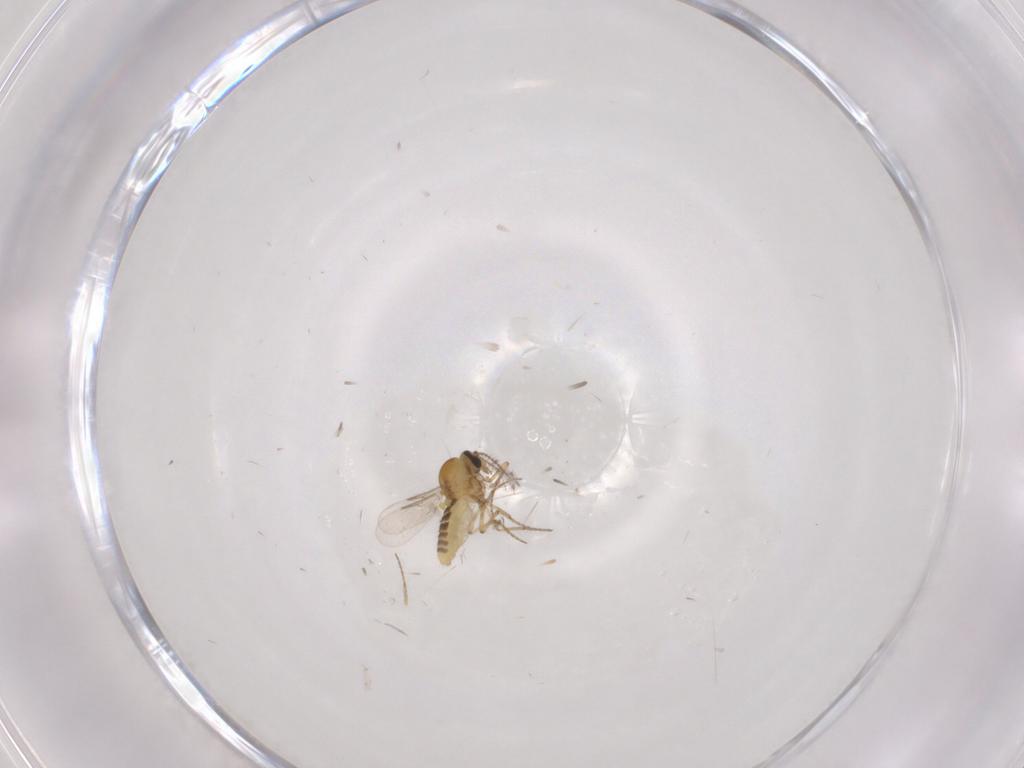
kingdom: Animalia
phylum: Arthropoda
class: Insecta
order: Diptera
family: Ceratopogonidae
